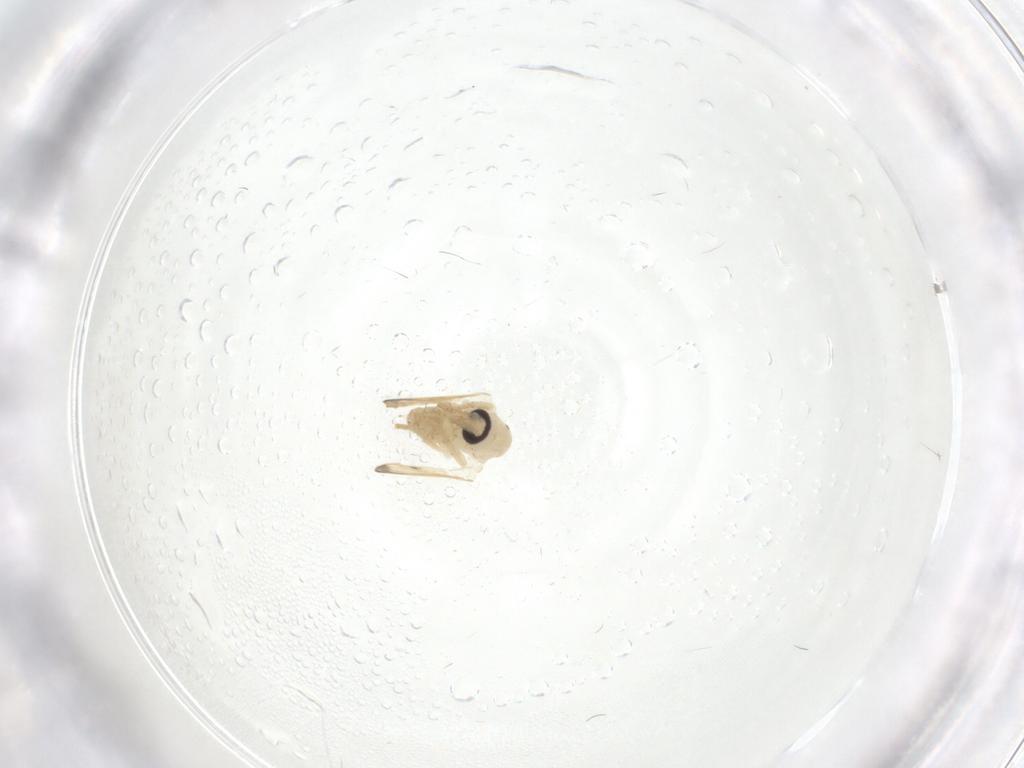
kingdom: Animalia
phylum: Arthropoda
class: Insecta
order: Diptera
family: Psychodidae
